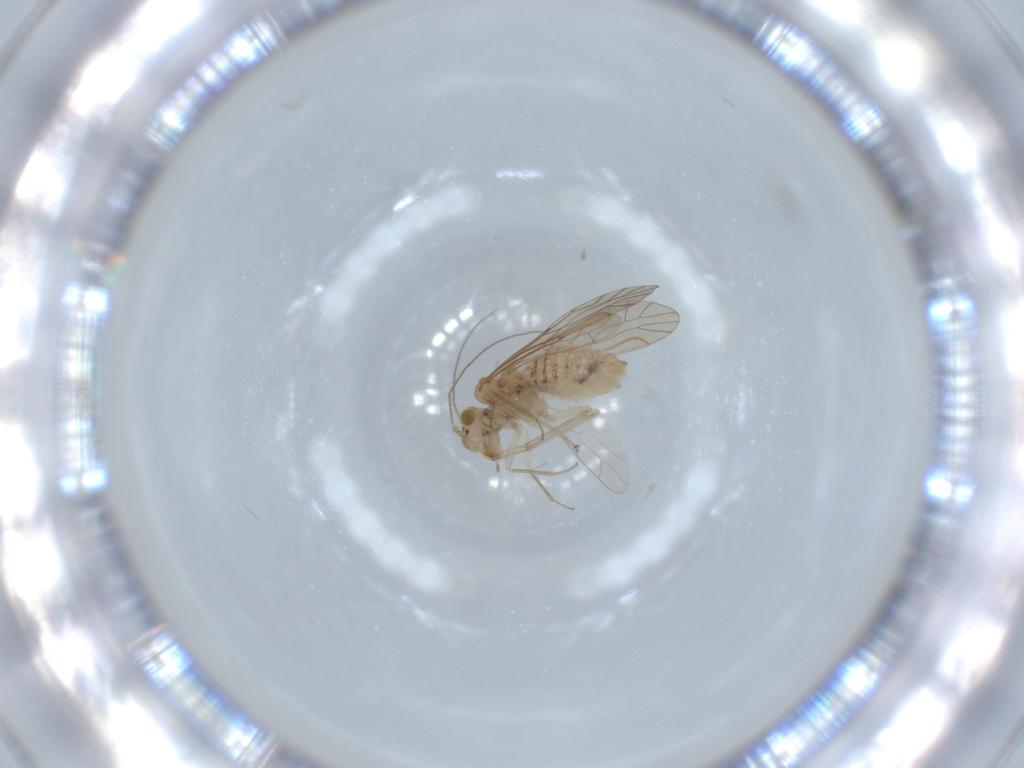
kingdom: Animalia
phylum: Arthropoda
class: Insecta
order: Psocodea
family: Lachesillidae
